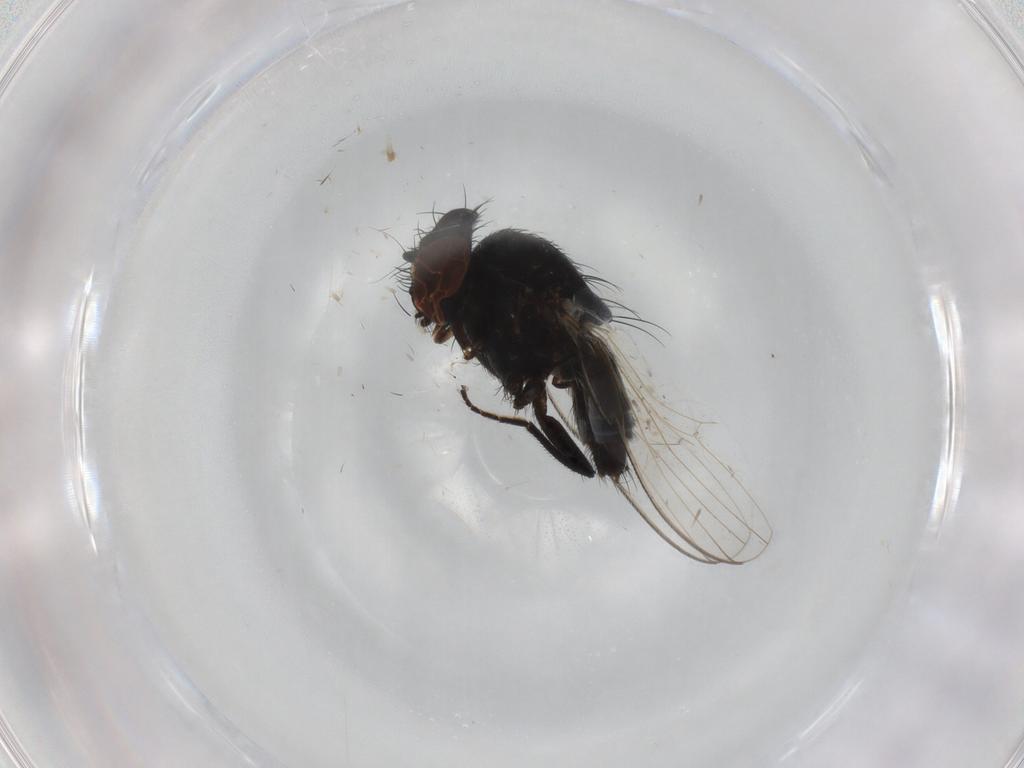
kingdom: Animalia
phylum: Arthropoda
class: Insecta
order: Diptera
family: Milichiidae
